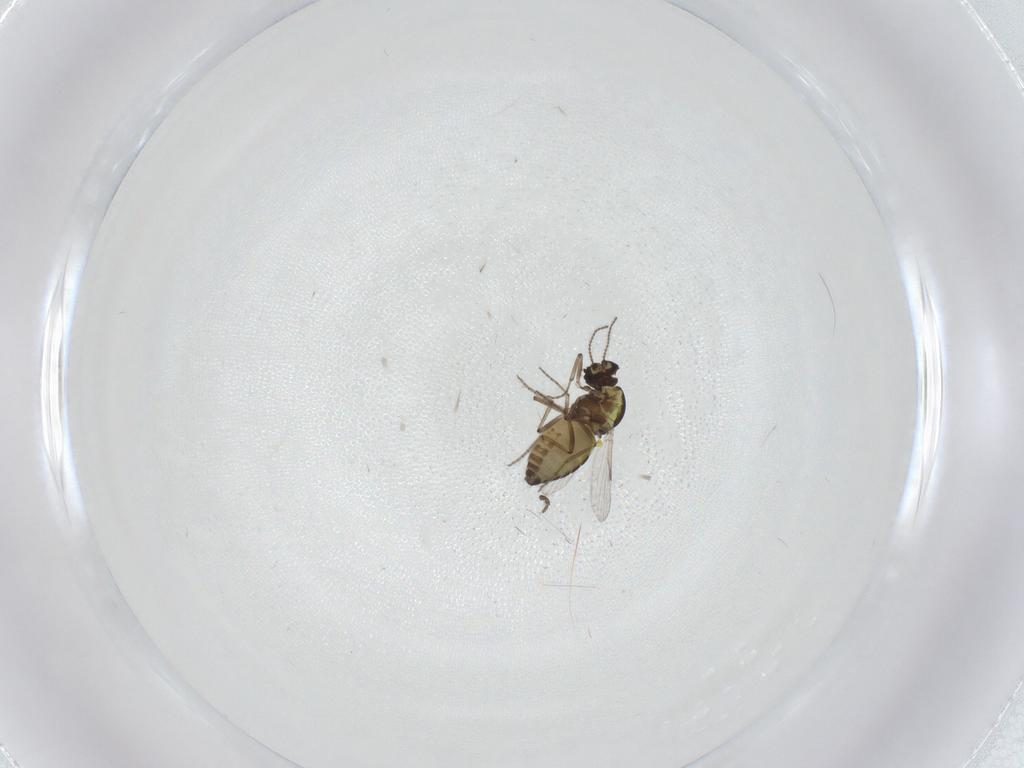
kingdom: Animalia
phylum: Arthropoda
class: Insecta
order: Diptera
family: Ceratopogonidae
